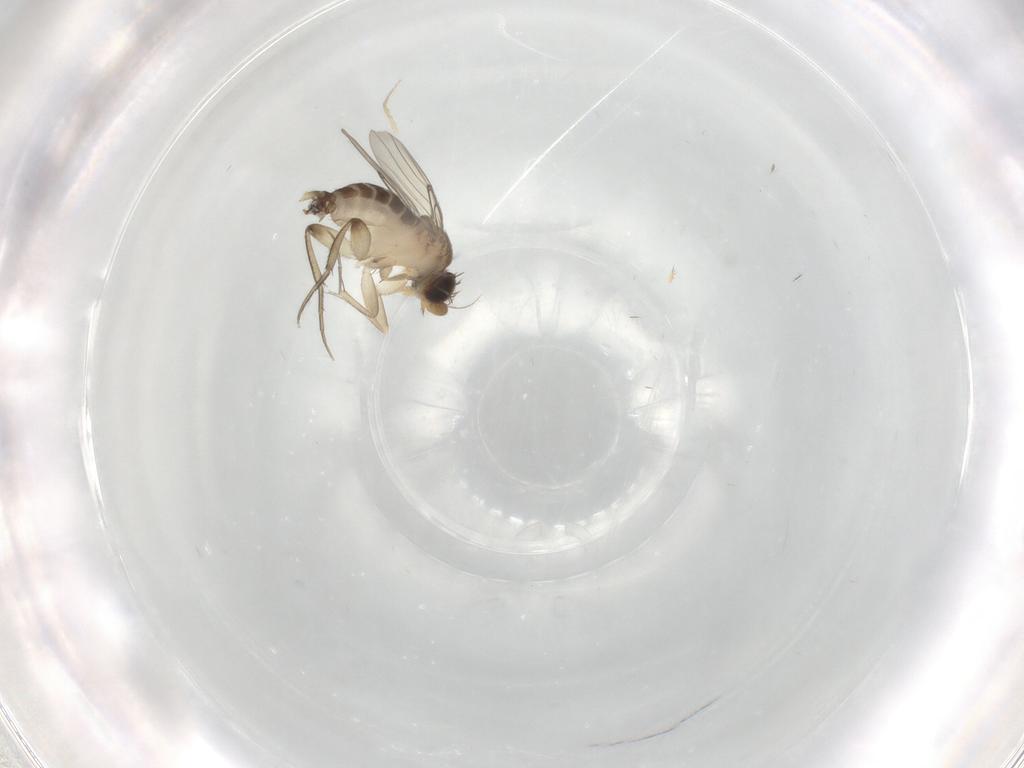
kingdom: Animalia
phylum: Arthropoda
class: Insecta
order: Diptera
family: Phoridae
